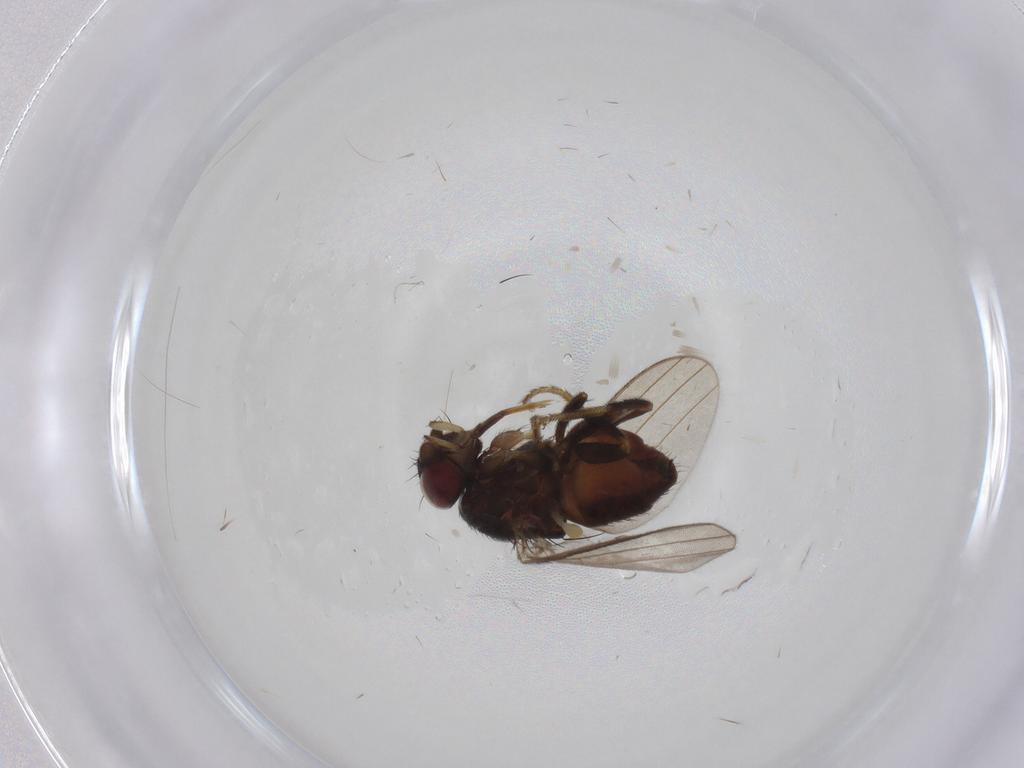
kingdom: Animalia
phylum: Arthropoda
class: Insecta
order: Diptera
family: Milichiidae
